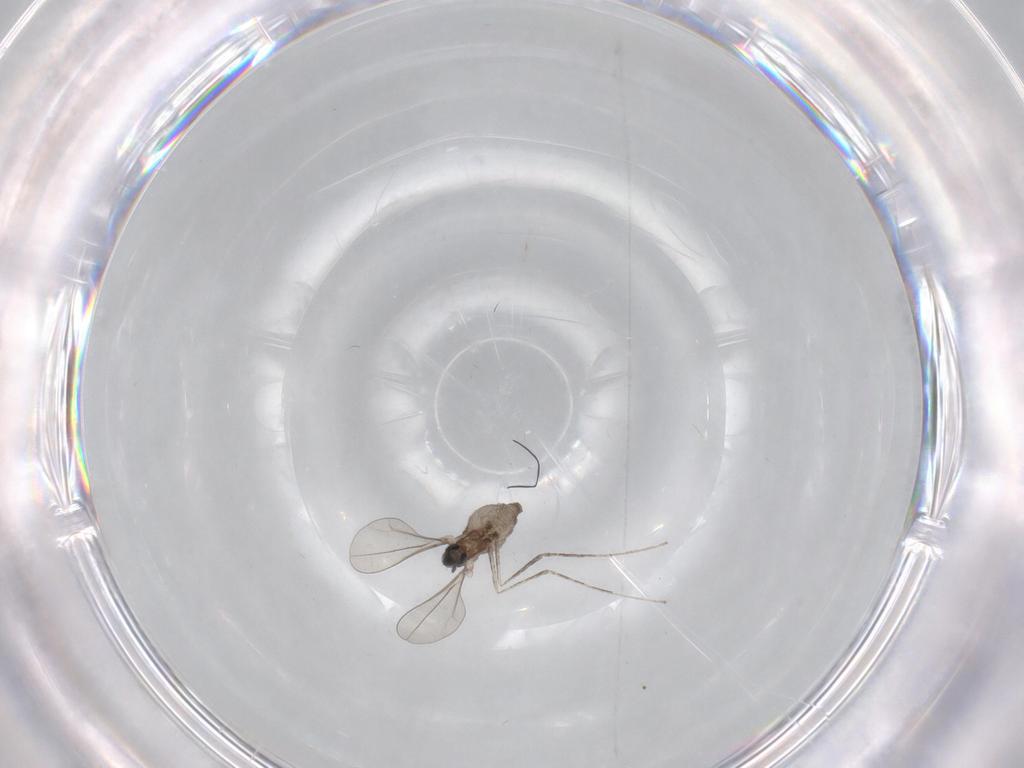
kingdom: Animalia
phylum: Arthropoda
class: Insecta
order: Diptera
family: Cecidomyiidae
